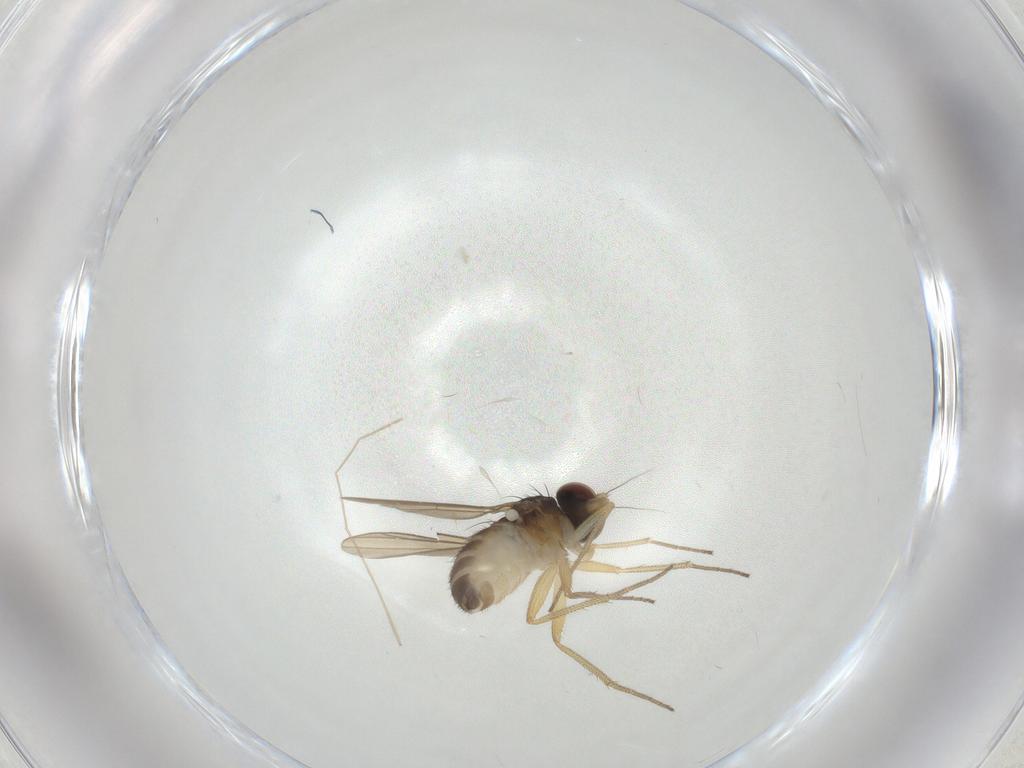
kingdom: Animalia
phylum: Arthropoda
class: Insecta
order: Diptera
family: Dolichopodidae
